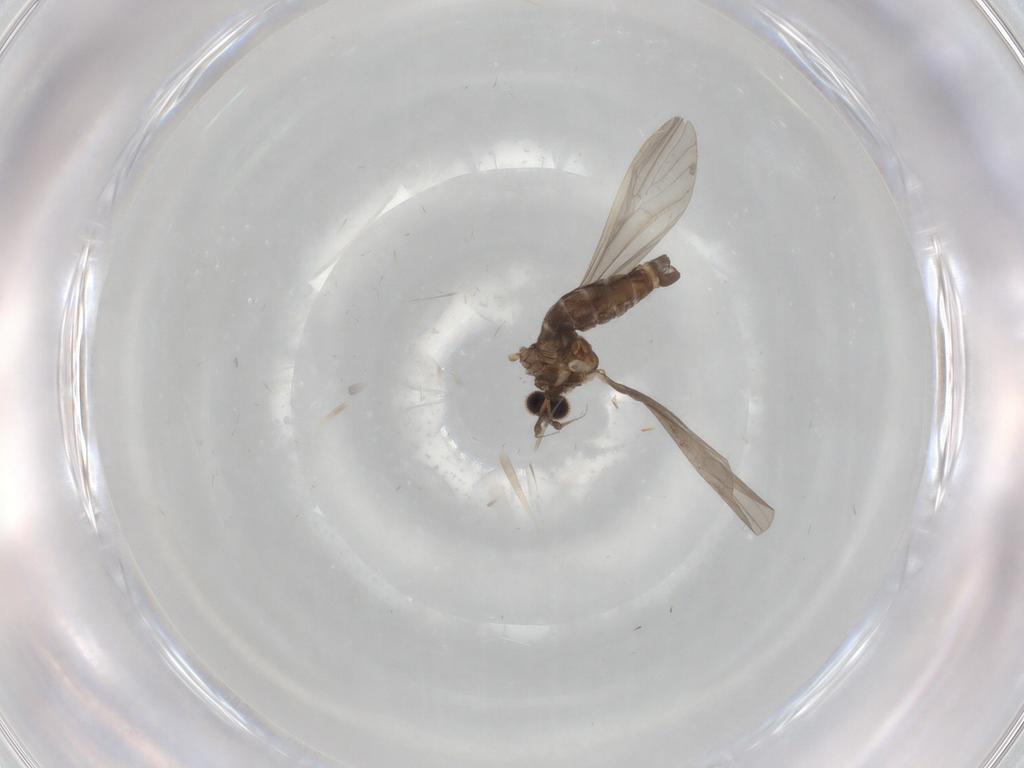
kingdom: Animalia
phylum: Arthropoda
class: Insecta
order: Diptera
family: Limoniidae
